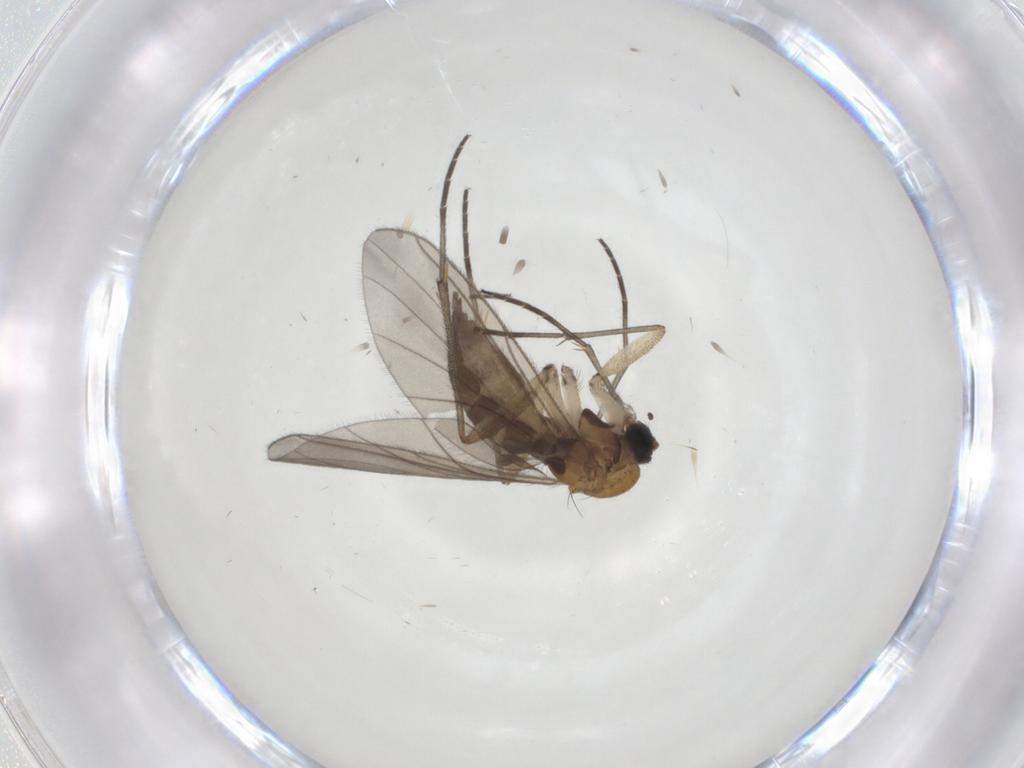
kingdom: Animalia
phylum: Arthropoda
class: Insecta
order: Diptera
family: Sciaridae
